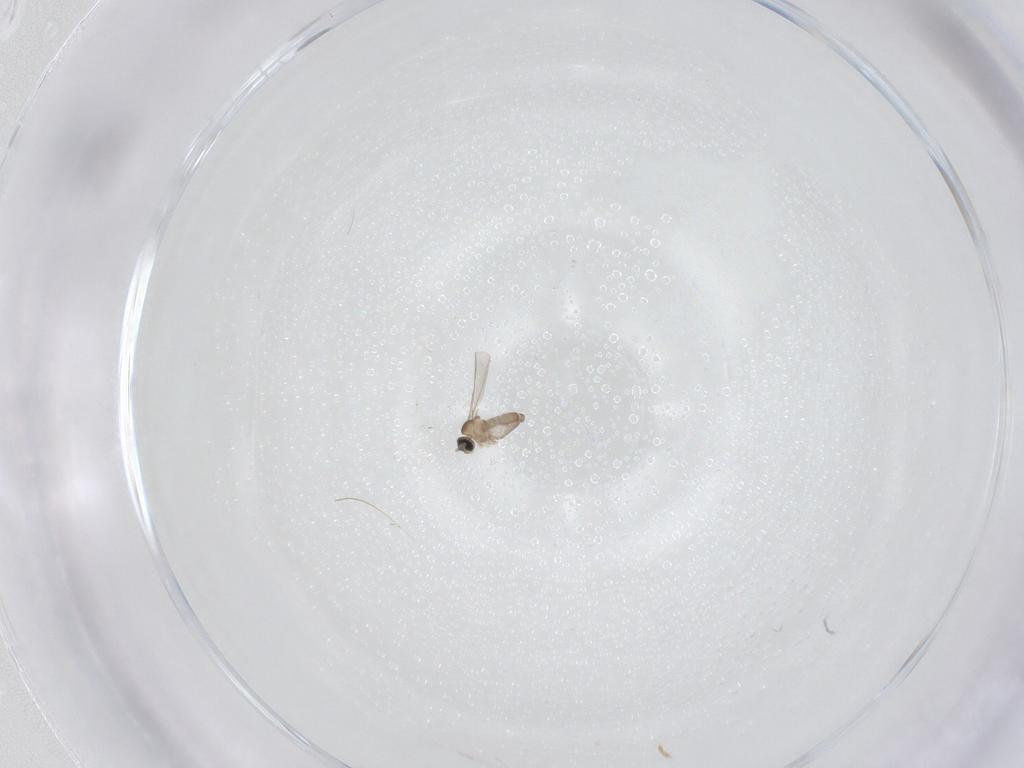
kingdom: Animalia
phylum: Arthropoda
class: Insecta
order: Diptera
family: Cecidomyiidae
